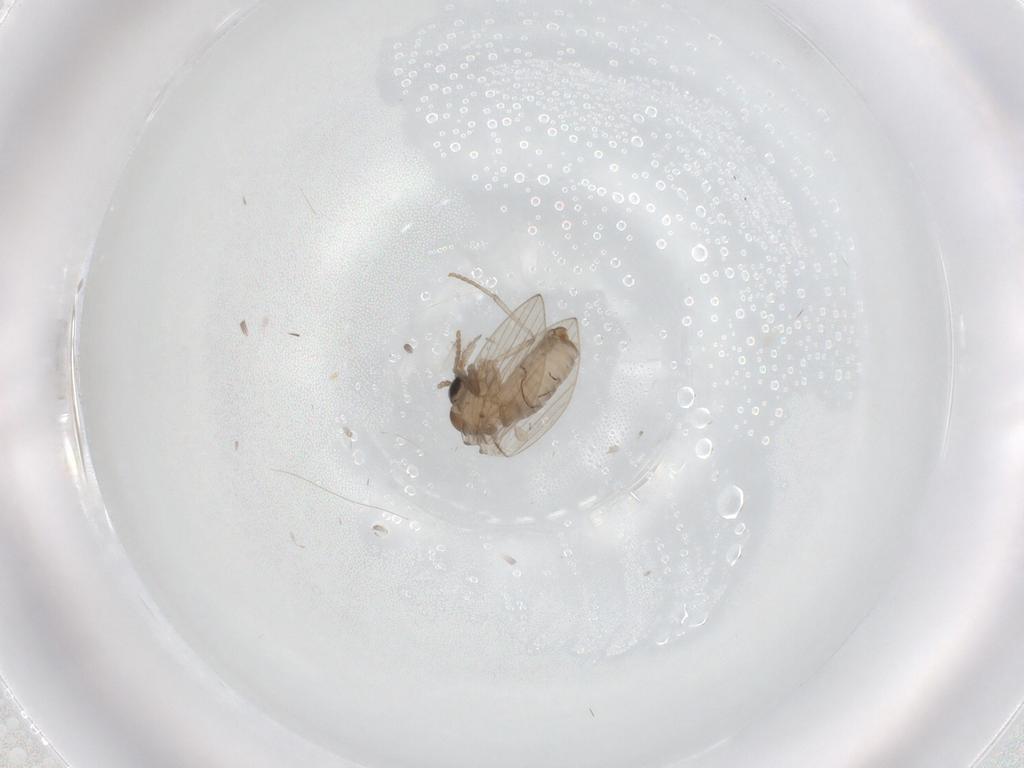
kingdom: Animalia
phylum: Arthropoda
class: Insecta
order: Diptera
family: Psychodidae
